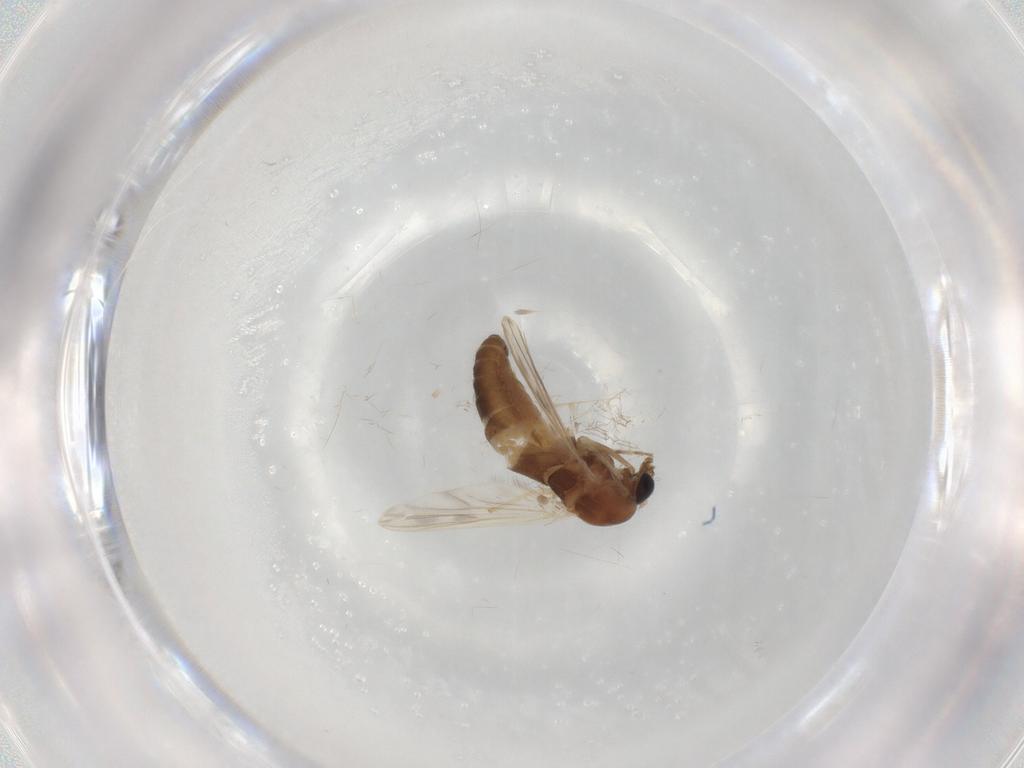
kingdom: Animalia
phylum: Arthropoda
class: Insecta
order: Diptera
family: Chironomidae
